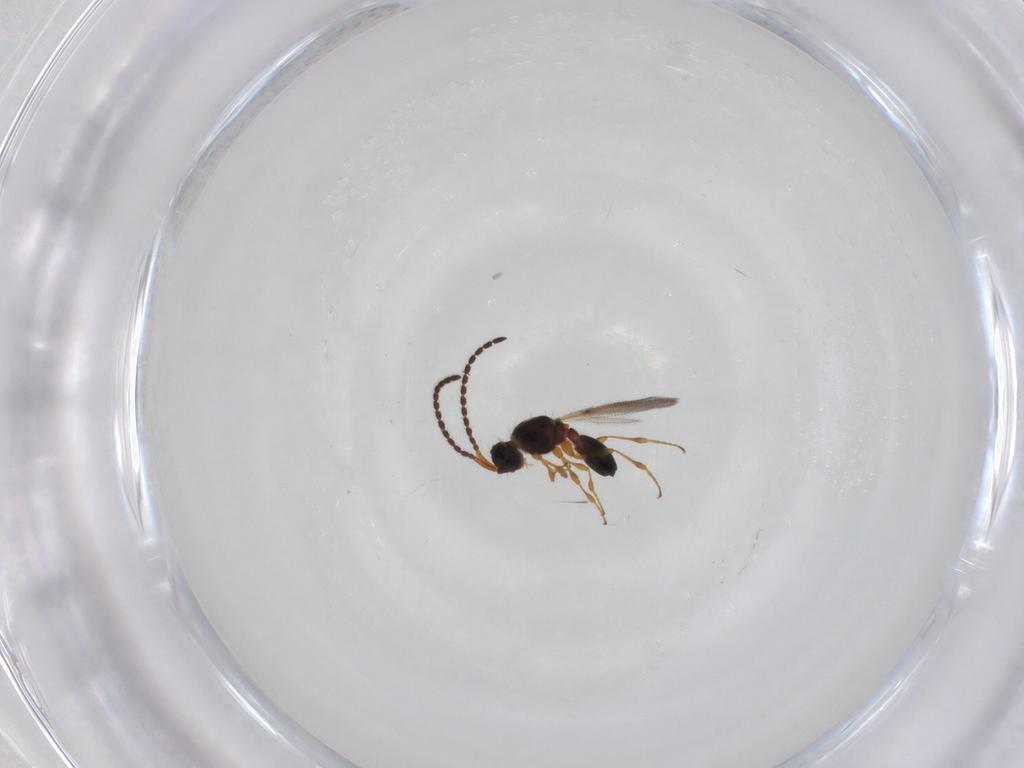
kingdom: Animalia
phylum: Arthropoda
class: Insecta
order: Hymenoptera
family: Diapriidae
